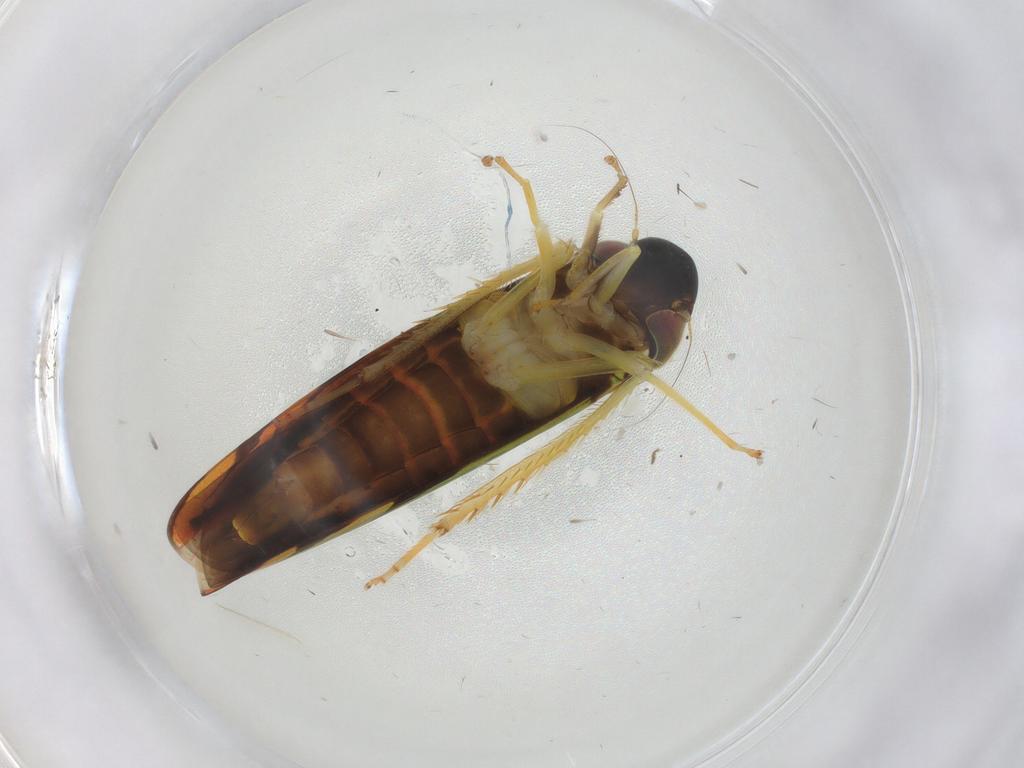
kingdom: Animalia
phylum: Arthropoda
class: Insecta
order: Hemiptera
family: Cicadellidae
